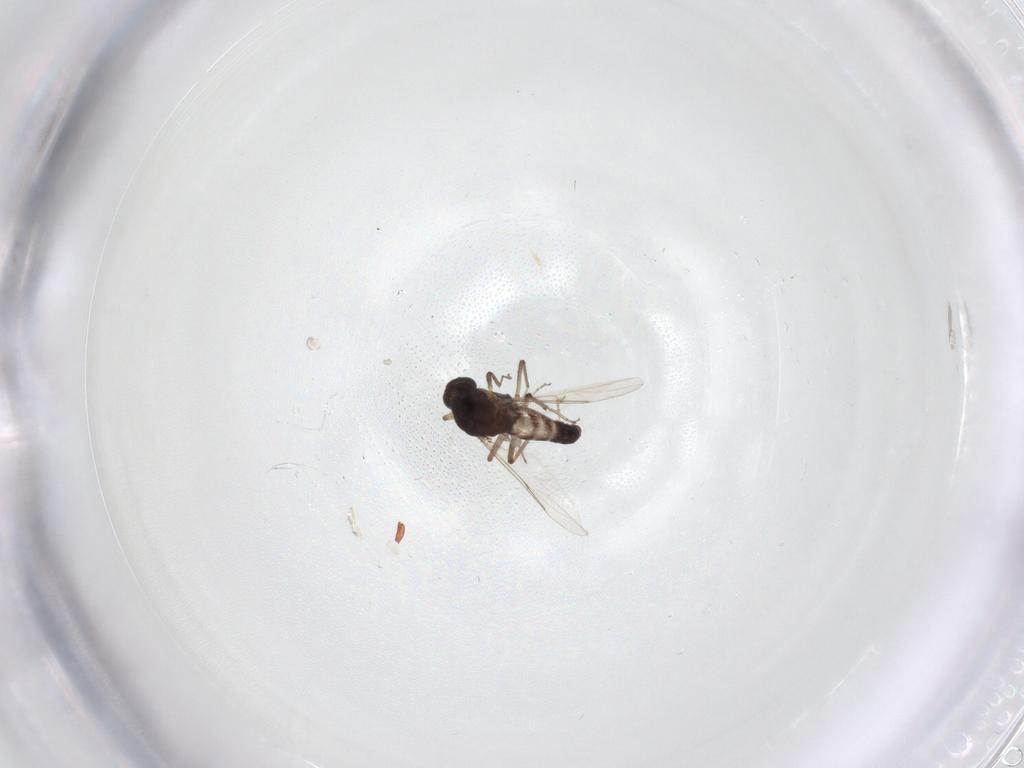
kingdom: Animalia
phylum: Arthropoda
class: Insecta
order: Diptera
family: Ceratopogonidae
